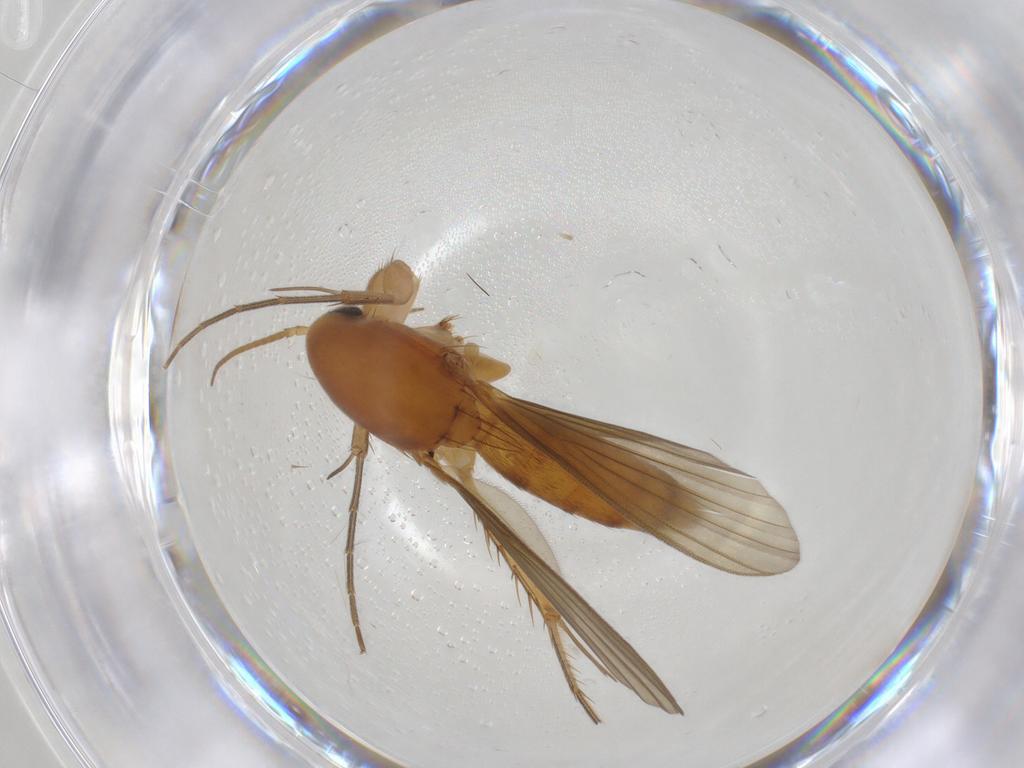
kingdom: Animalia
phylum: Arthropoda
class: Insecta
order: Diptera
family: Mycetophilidae
